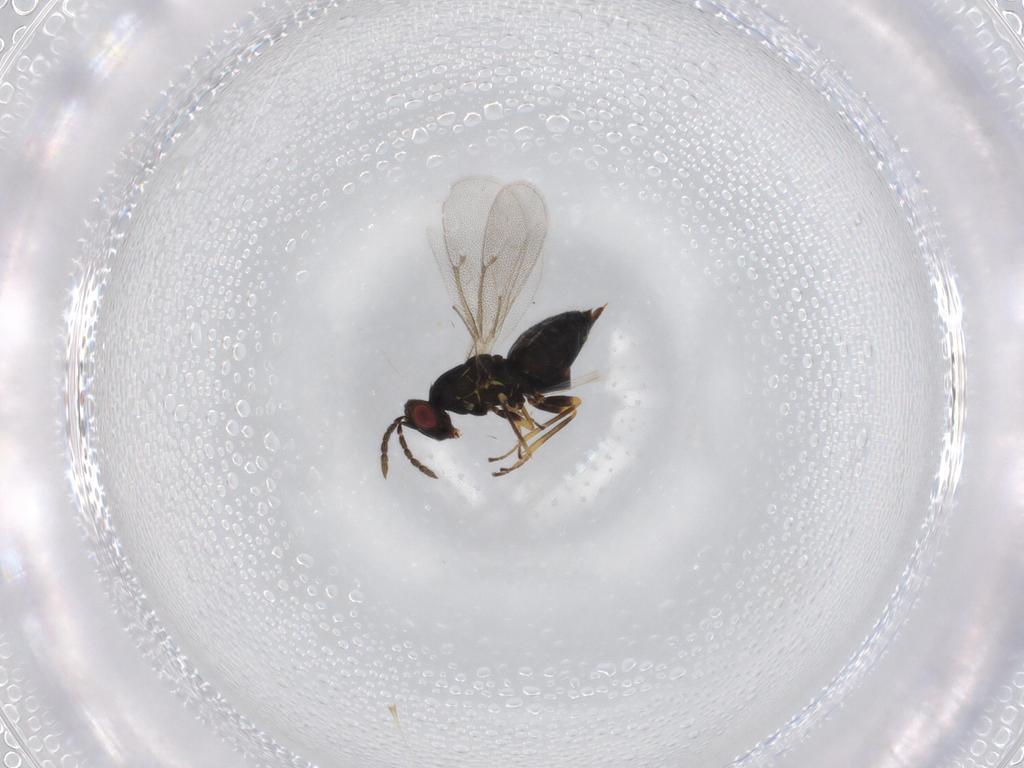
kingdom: Animalia
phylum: Arthropoda
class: Insecta
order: Hymenoptera
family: Eulophidae
